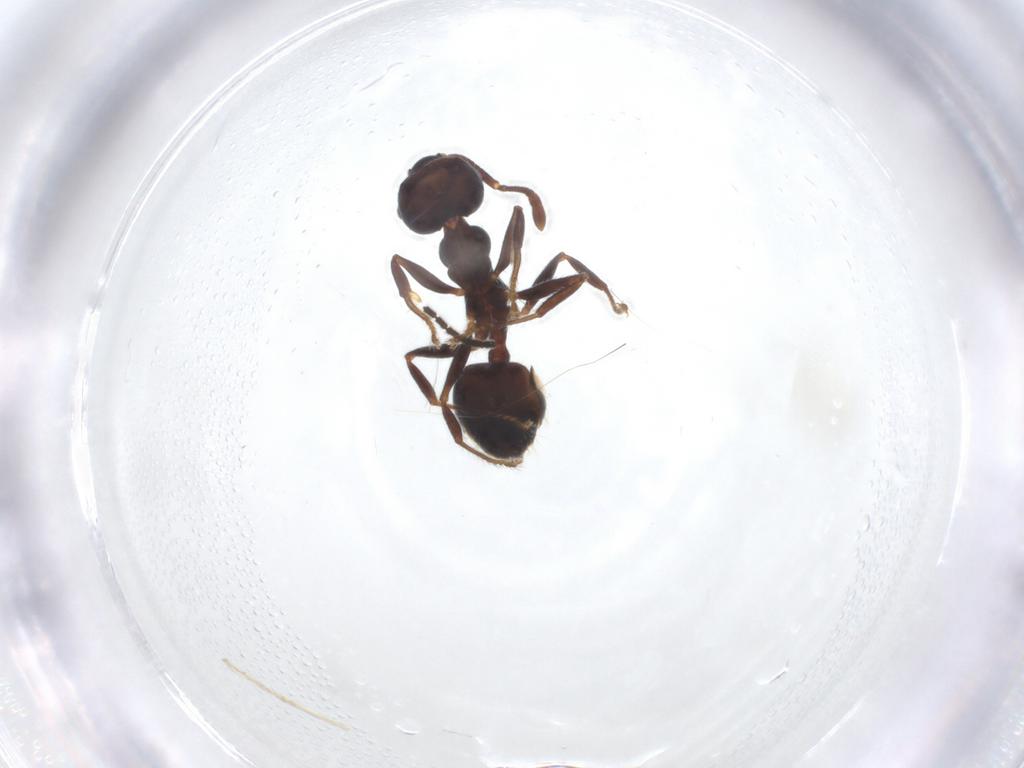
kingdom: Animalia
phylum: Arthropoda
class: Insecta
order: Hymenoptera
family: Formicidae
